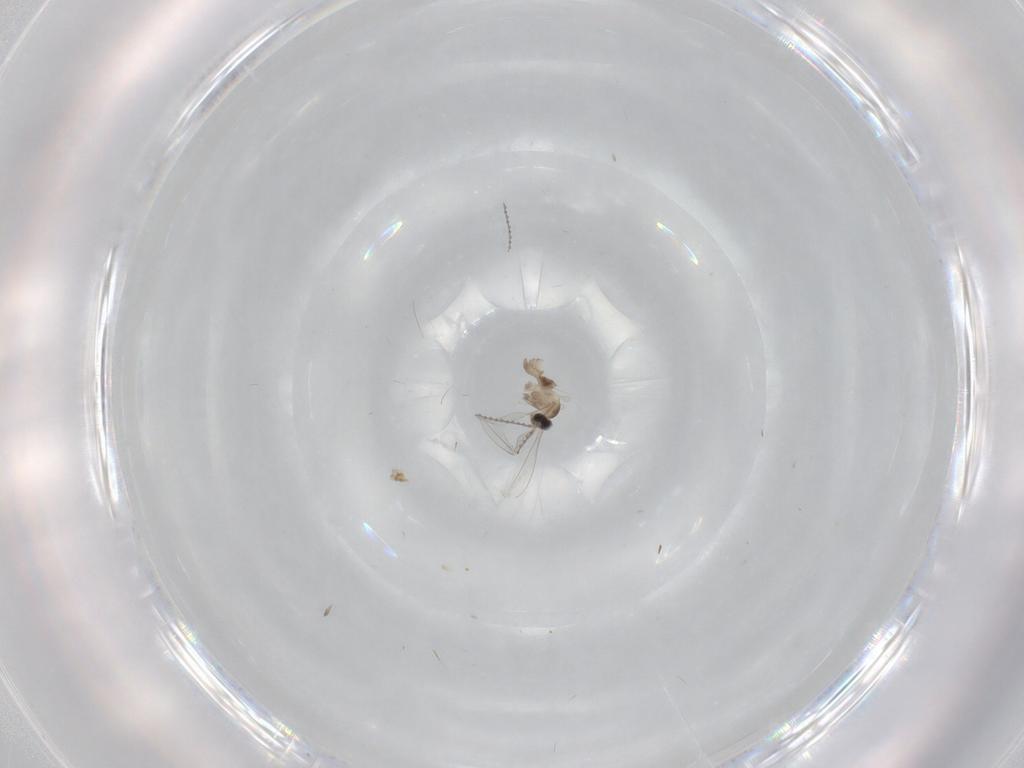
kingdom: Animalia
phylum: Arthropoda
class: Insecta
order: Diptera
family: Cecidomyiidae
